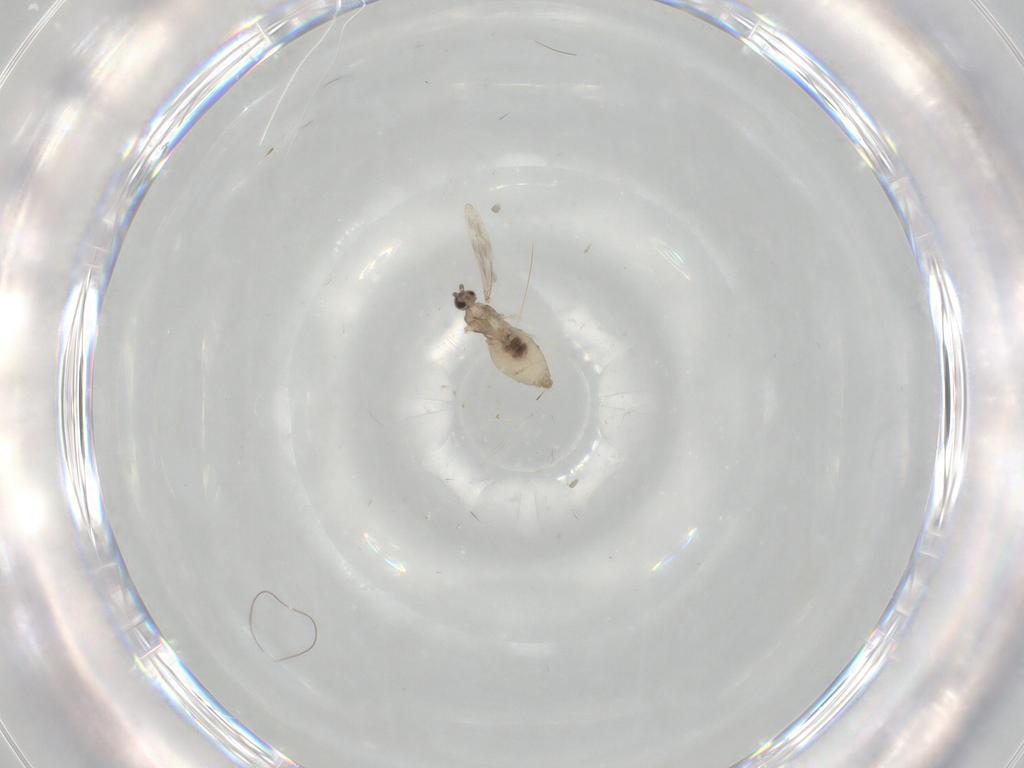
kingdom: Animalia
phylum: Arthropoda
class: Insecta
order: Diptera
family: Cecidomyiidae
